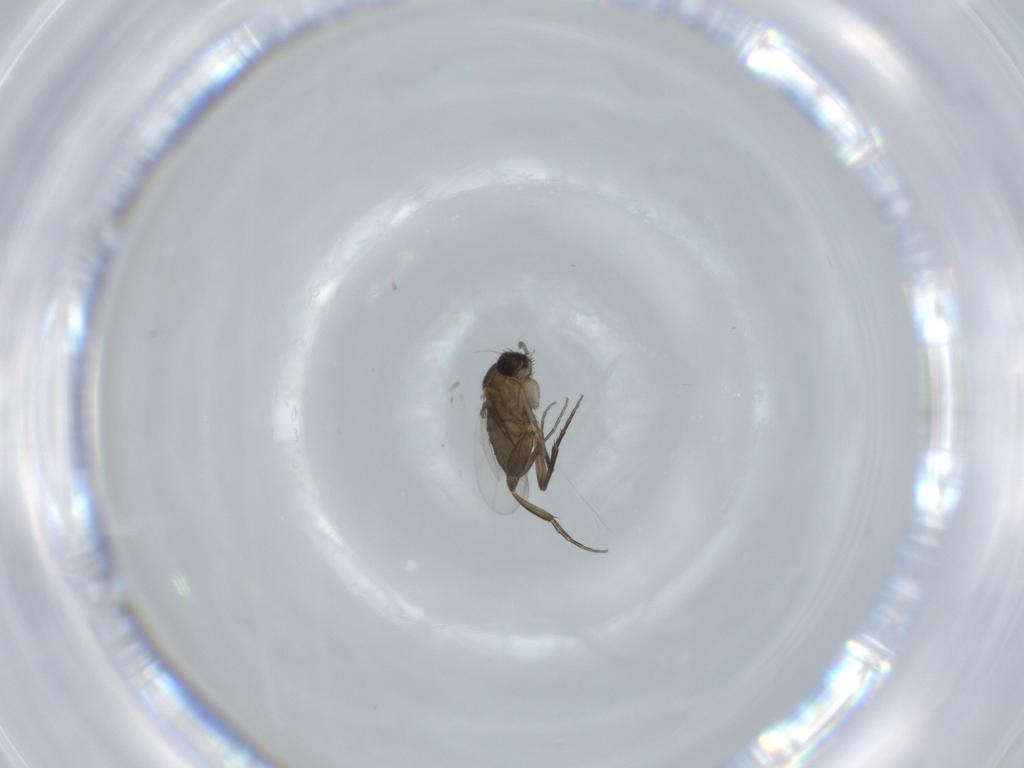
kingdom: Animalia
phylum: Arthropoda
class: Insecta
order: Diptera
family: Phoridae
